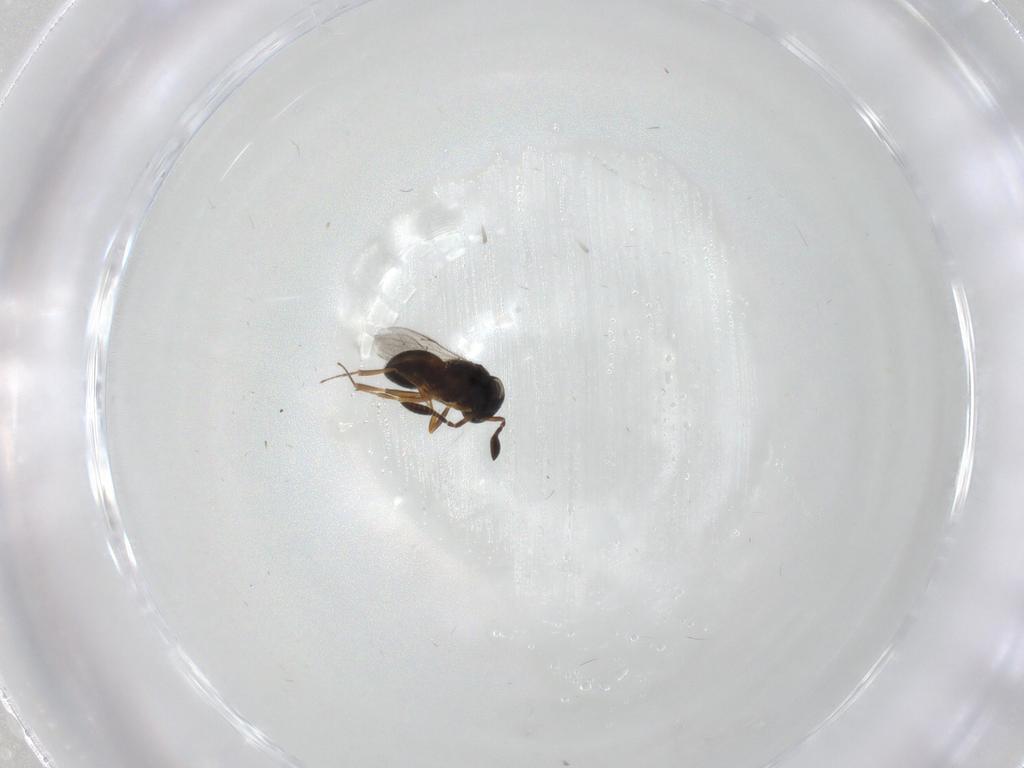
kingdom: Animalia
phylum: Arthropoda
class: Insecta
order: Hymenoptera
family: Scelionidae
